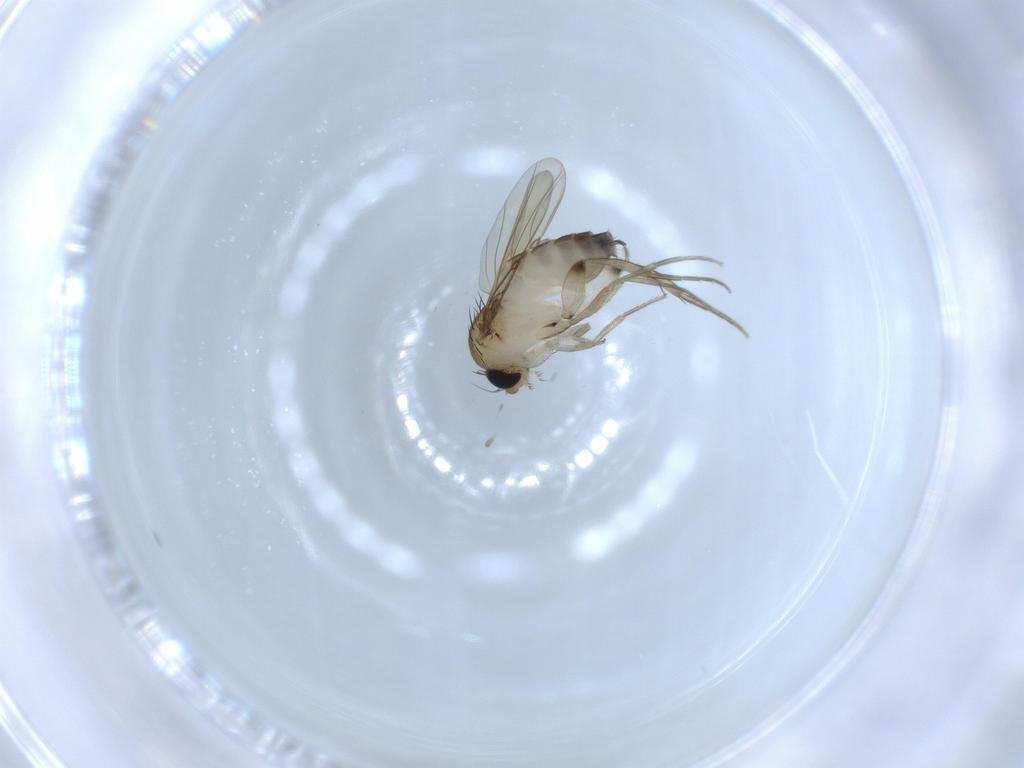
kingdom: Animalia
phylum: Arthropoda
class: Insecta
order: Diptera
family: Phoridae
